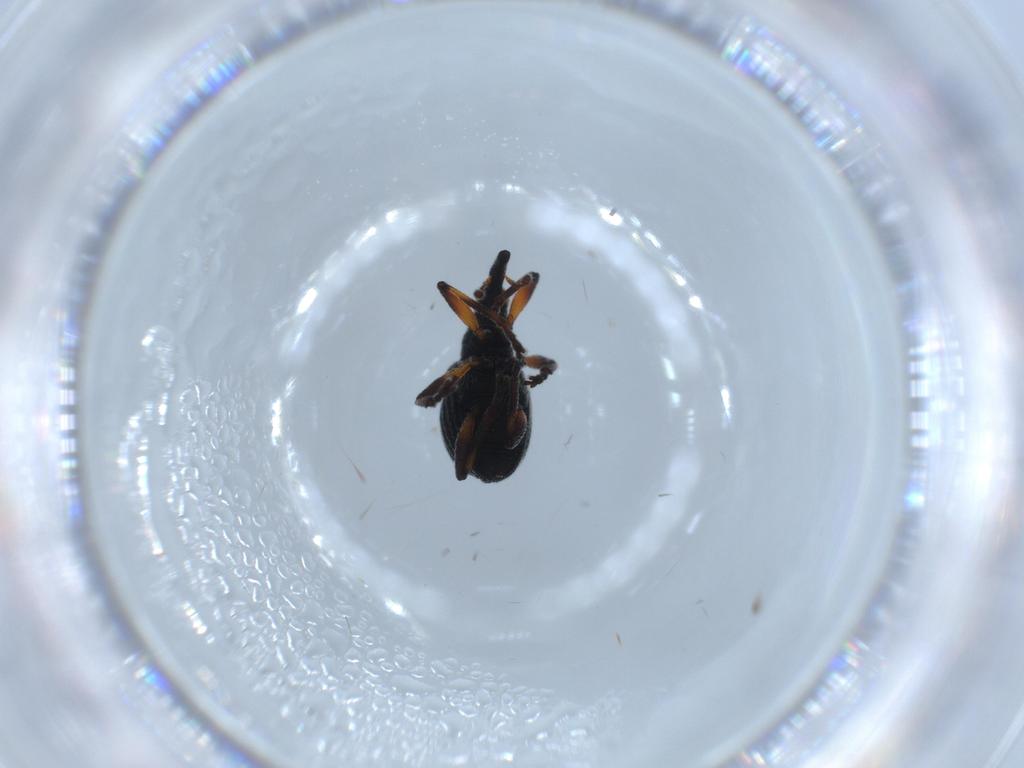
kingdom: Animalia
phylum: Arthropoda
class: Insecta
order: Coleoptera
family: Brentidae
